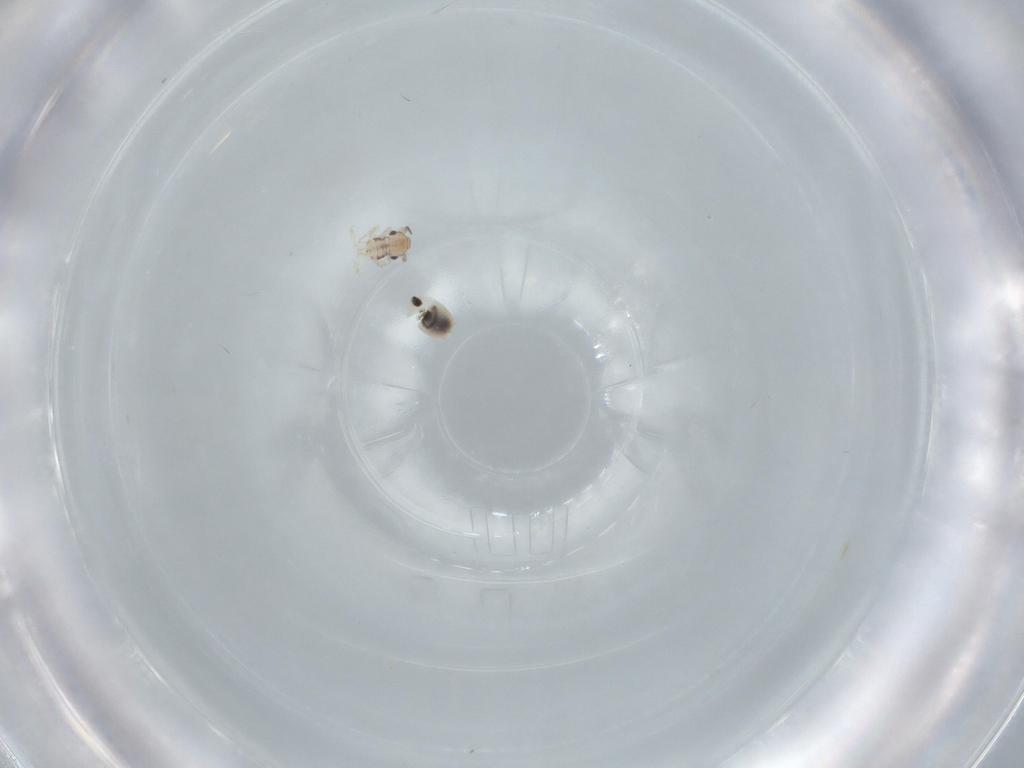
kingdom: Animalia
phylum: Arthropoda
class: Insecta
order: Psocodea
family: Lepidopsocidae
